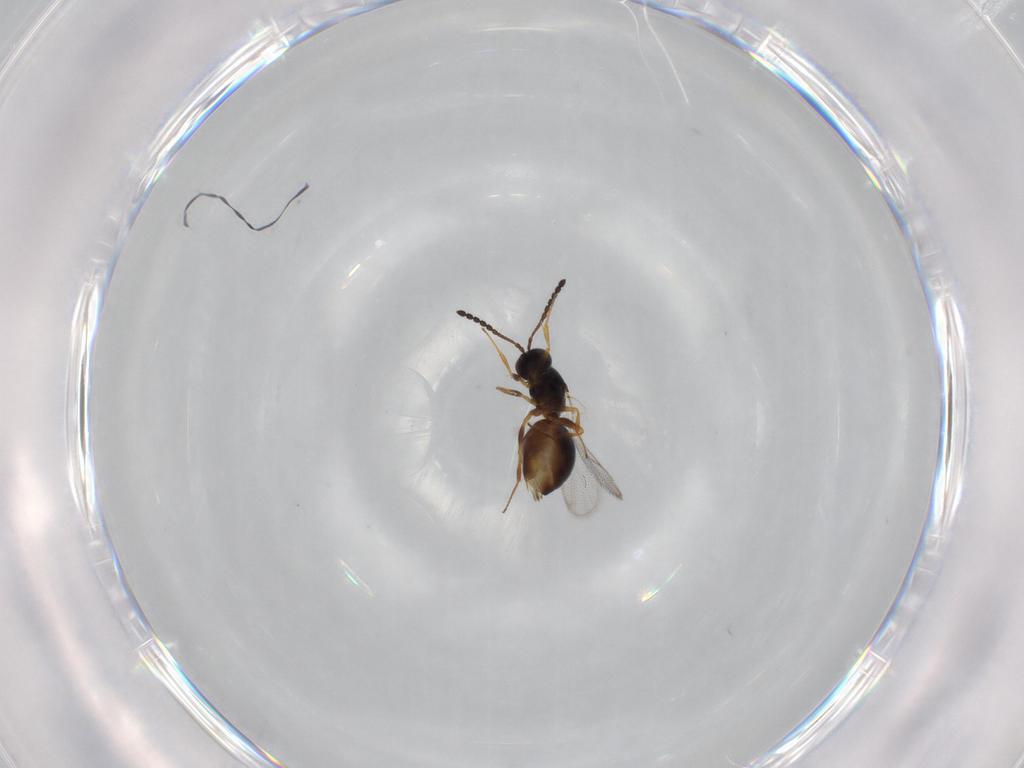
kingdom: Animalia
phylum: Arthropoda
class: Insecta
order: Hymenoptera
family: Figitidae
